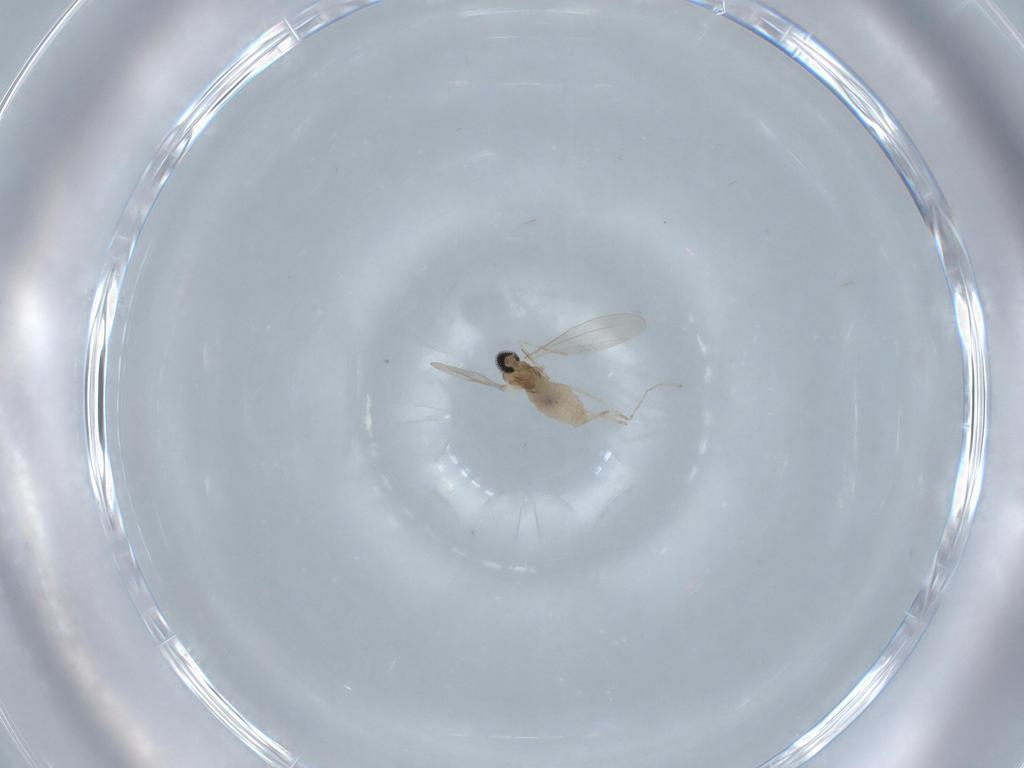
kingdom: Animalia
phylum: Arthropoda
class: Insecta
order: Diptera
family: Cecidomyiidae
